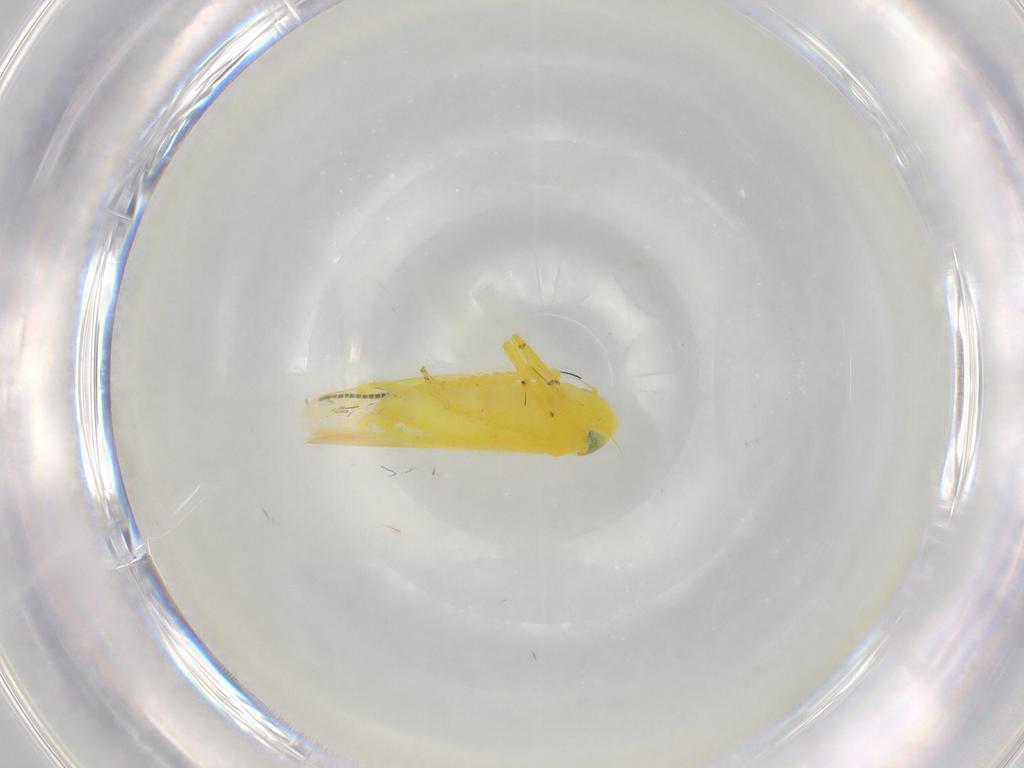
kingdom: Animalia
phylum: Arthropoda
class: Insecta
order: Hemiptera
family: Cicadellidae
